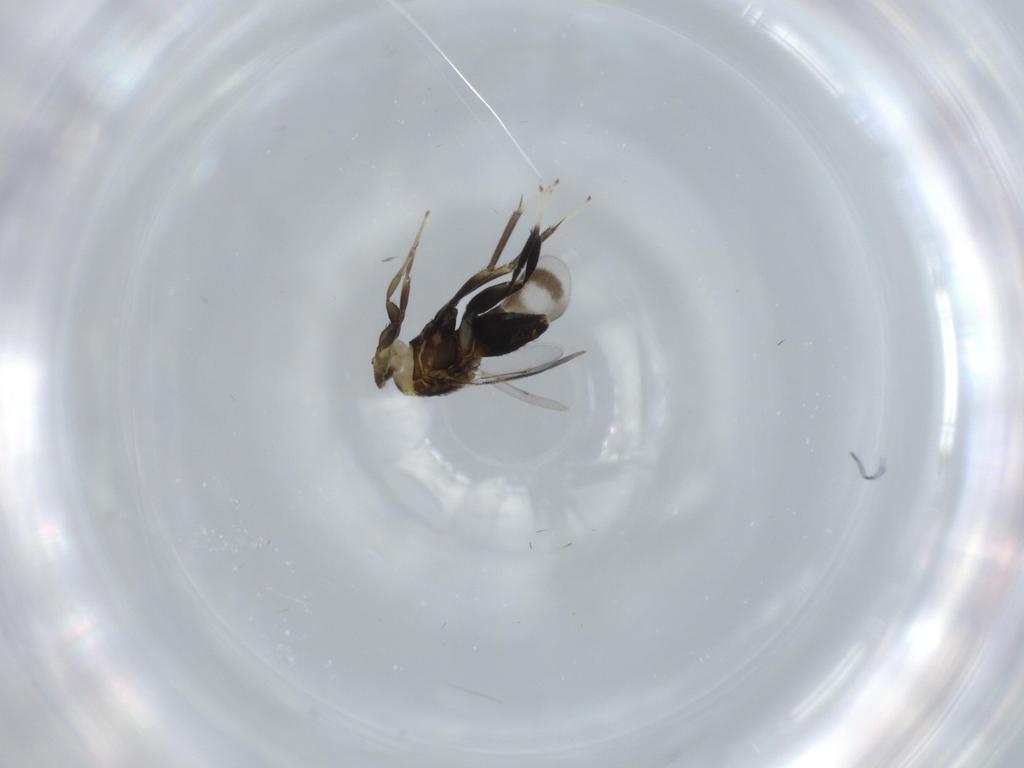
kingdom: Animalia
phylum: Arthropoda
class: Insecta
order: Hymenoptera
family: Aphelinidae
